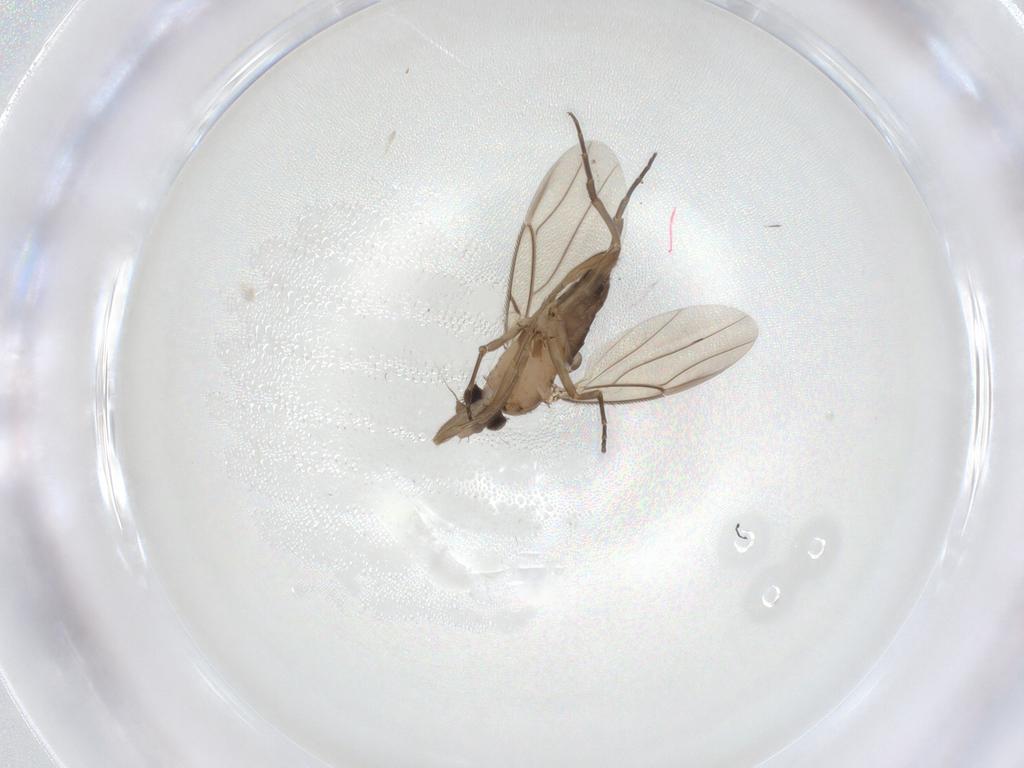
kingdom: Animalia
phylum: Arthropoda
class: Insecta
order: Diptera
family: Phoridae
